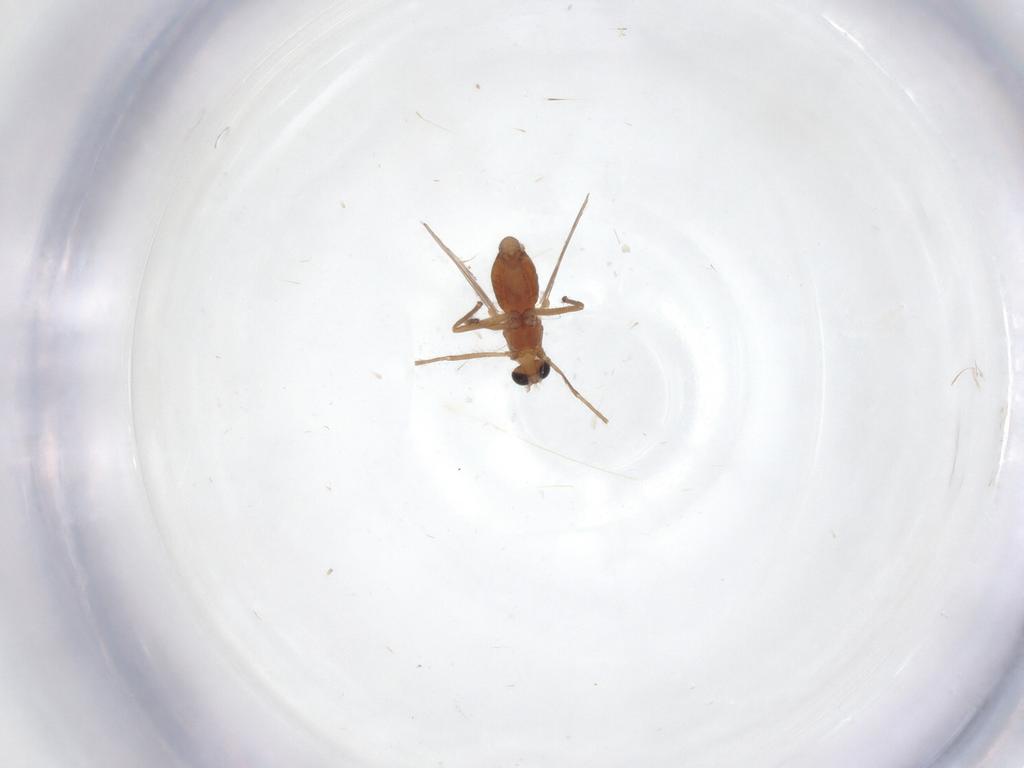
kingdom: Animalia
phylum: Arthropoda
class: Insecta
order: Diptera
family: Chironomidae
